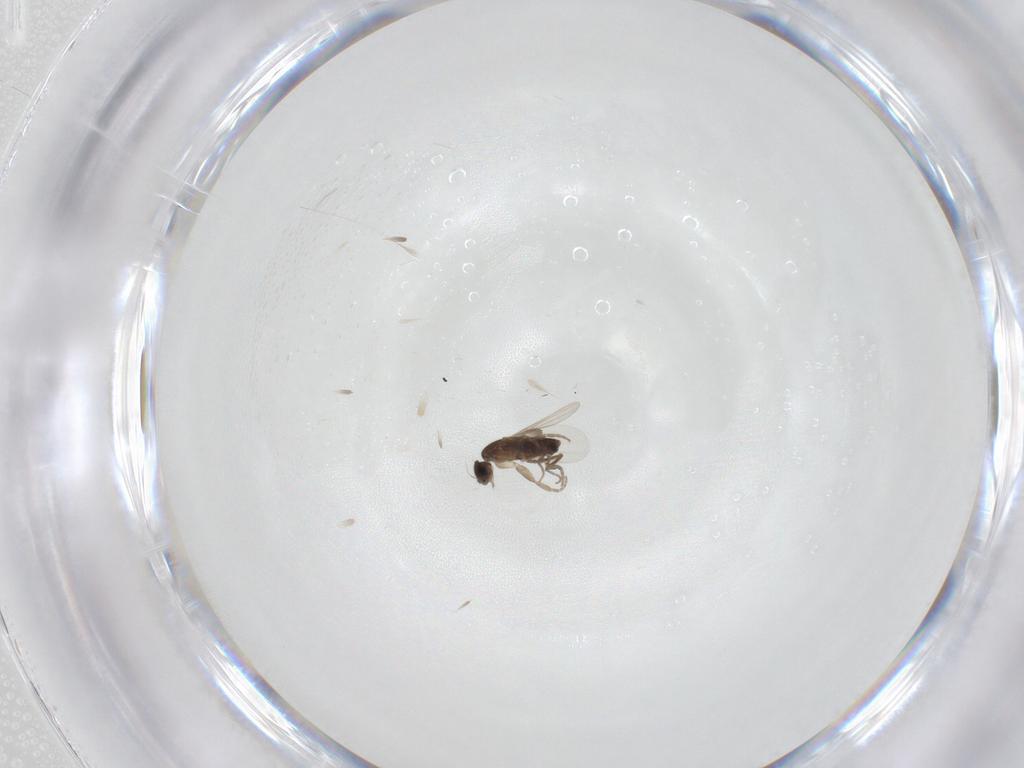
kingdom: Animalia
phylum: Arthropoda
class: Insecta
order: Diptera
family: Phoridae
